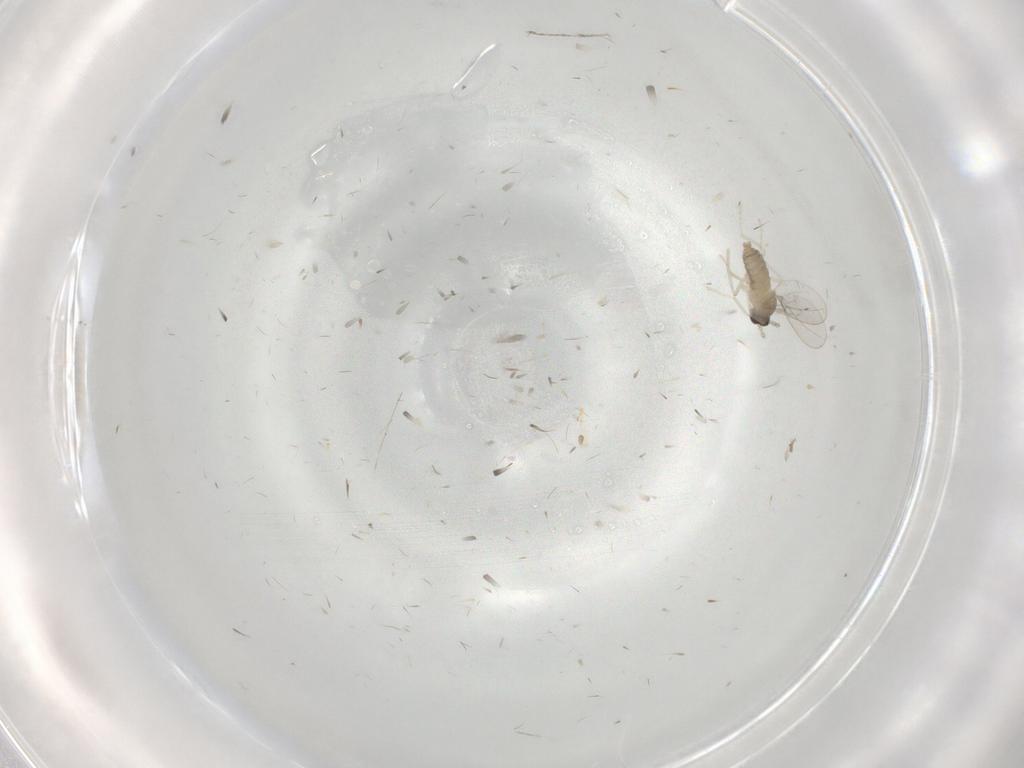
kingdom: Animalia
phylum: Arthropoda
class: Insecta
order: Diptera
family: Cecidomyiidae
